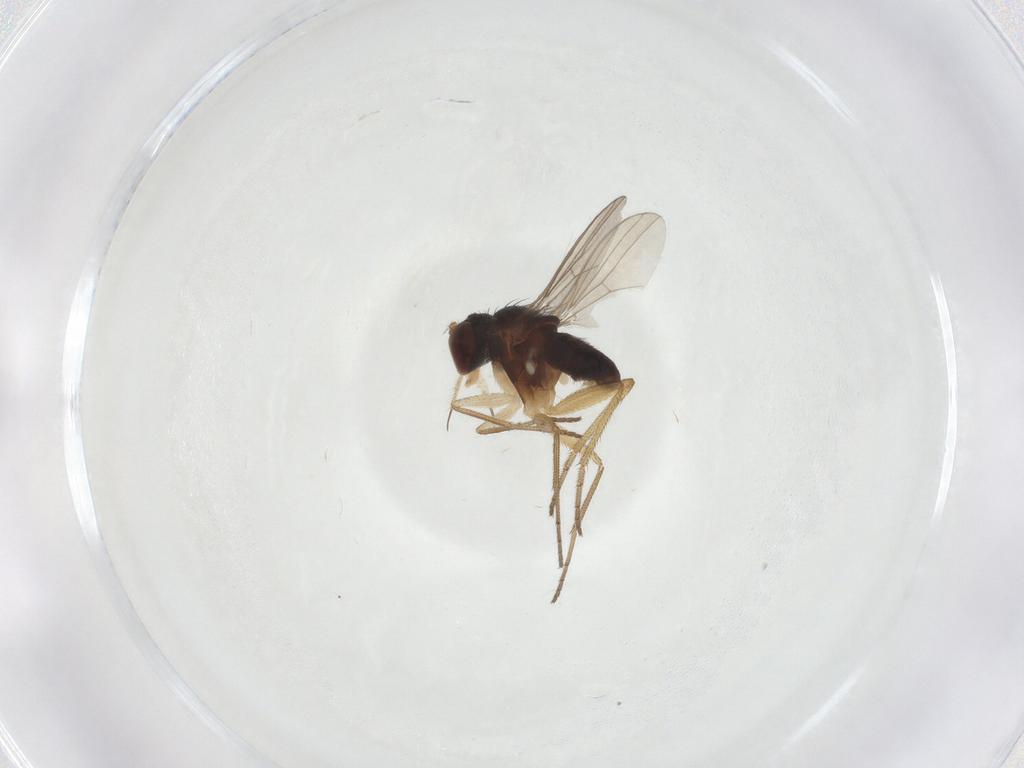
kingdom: Animalia
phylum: Arthropoda
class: Insecta
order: Diptera
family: Dolichopodidae
